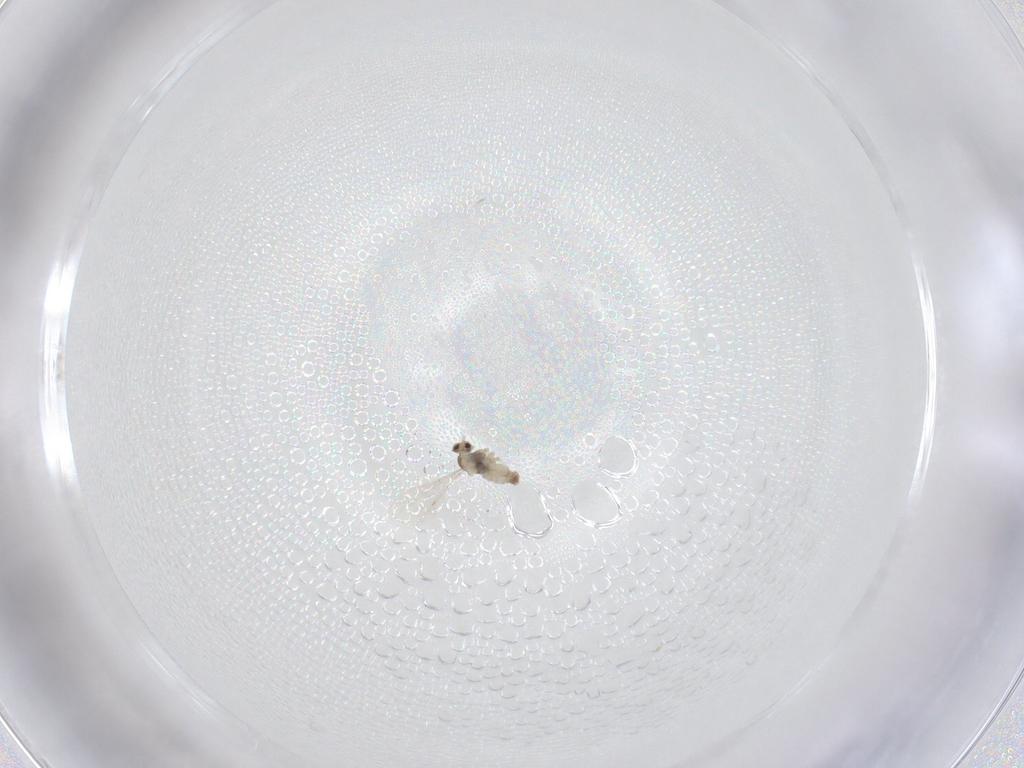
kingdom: Animalia
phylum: Arthropoda
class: Insecta
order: Diptera
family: Cecidomyiidae
